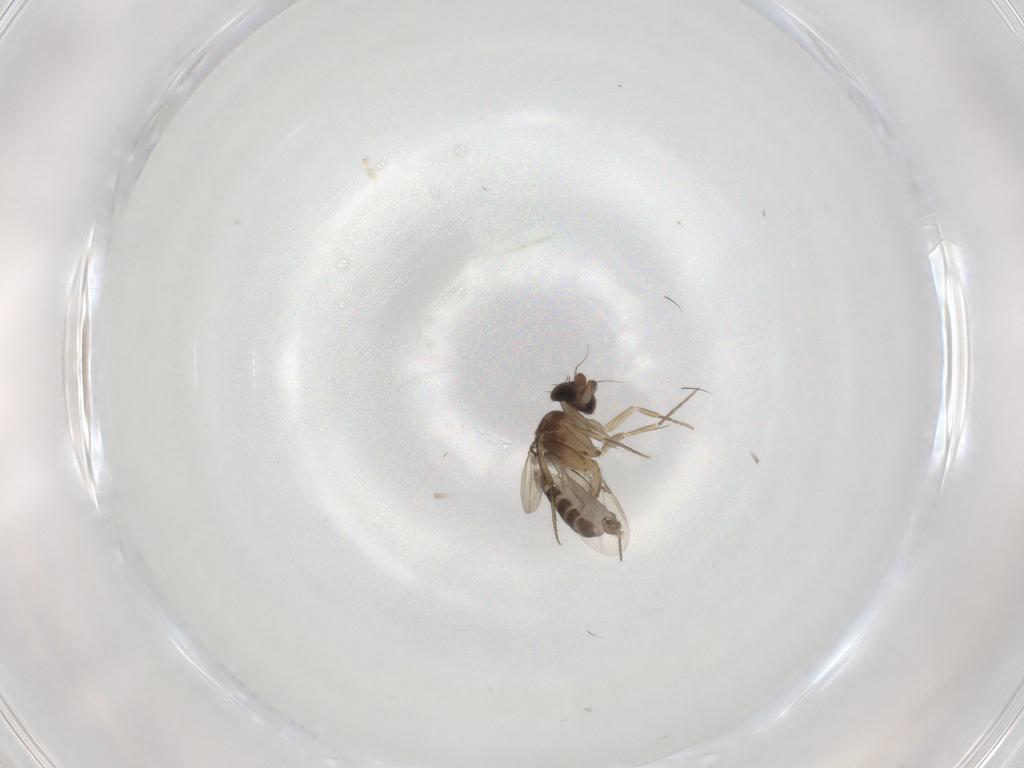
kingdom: Animalia
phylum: Arthropoda
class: Insecta
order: Diptera
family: Phoridae
